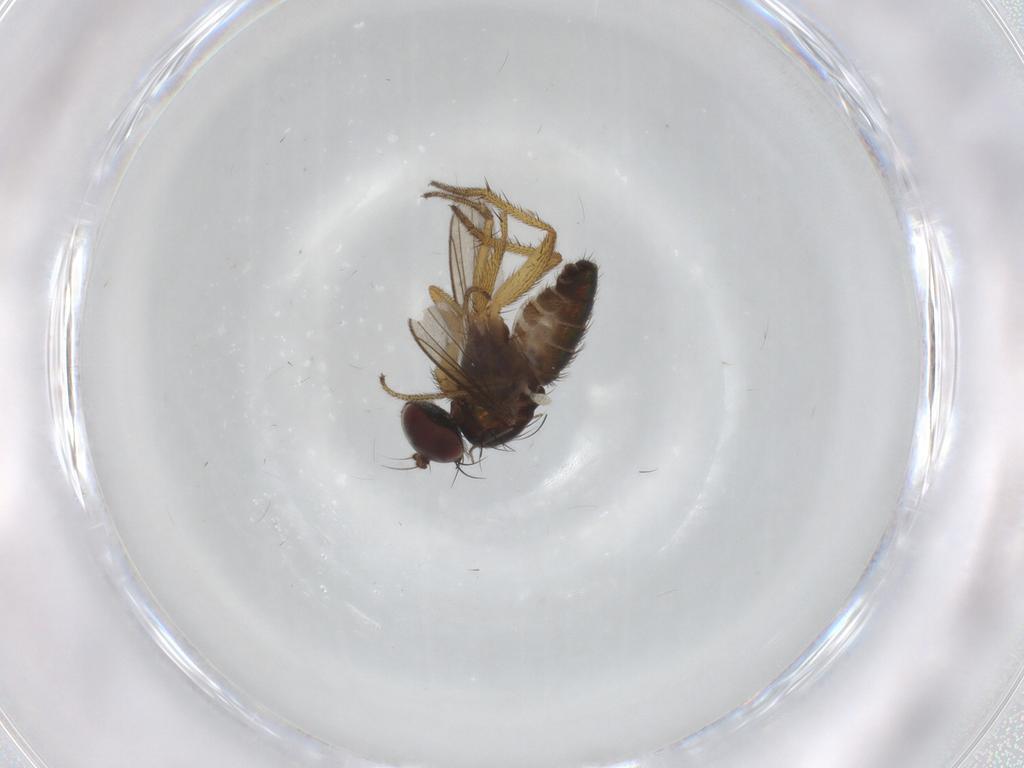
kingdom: Animalia
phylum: Arthropoda
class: Insecta
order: Diptera
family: Dolichopodidae
